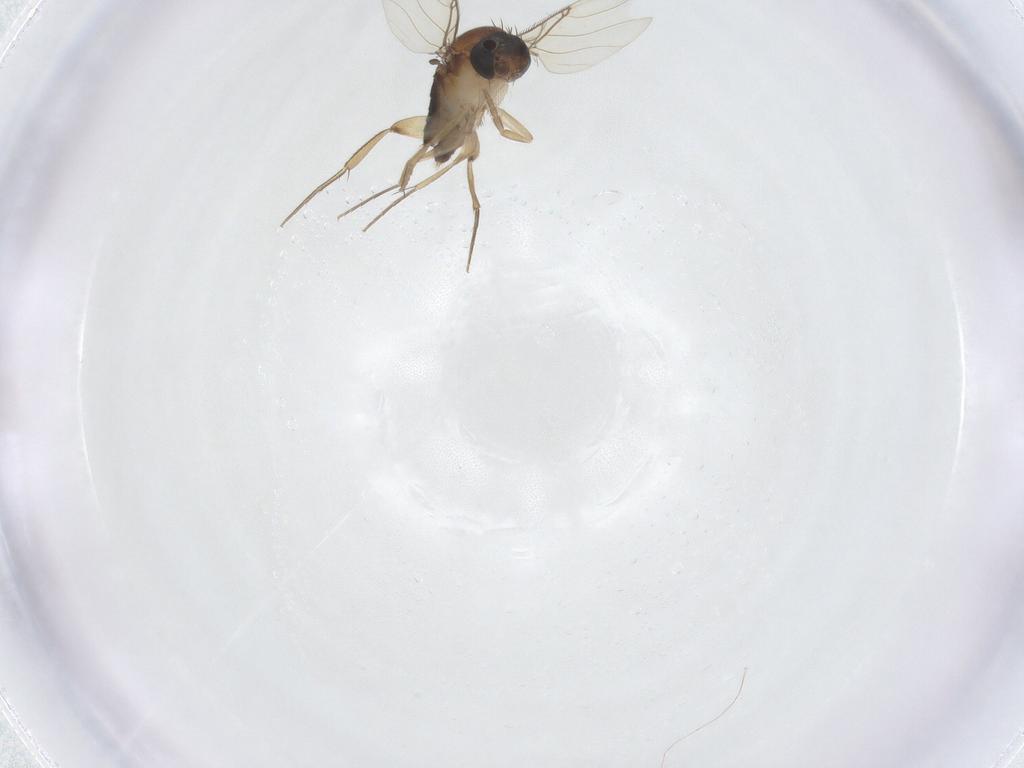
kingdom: Animalia
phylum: Arthropoda
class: Insecta
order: Diptera
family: Phoridae
